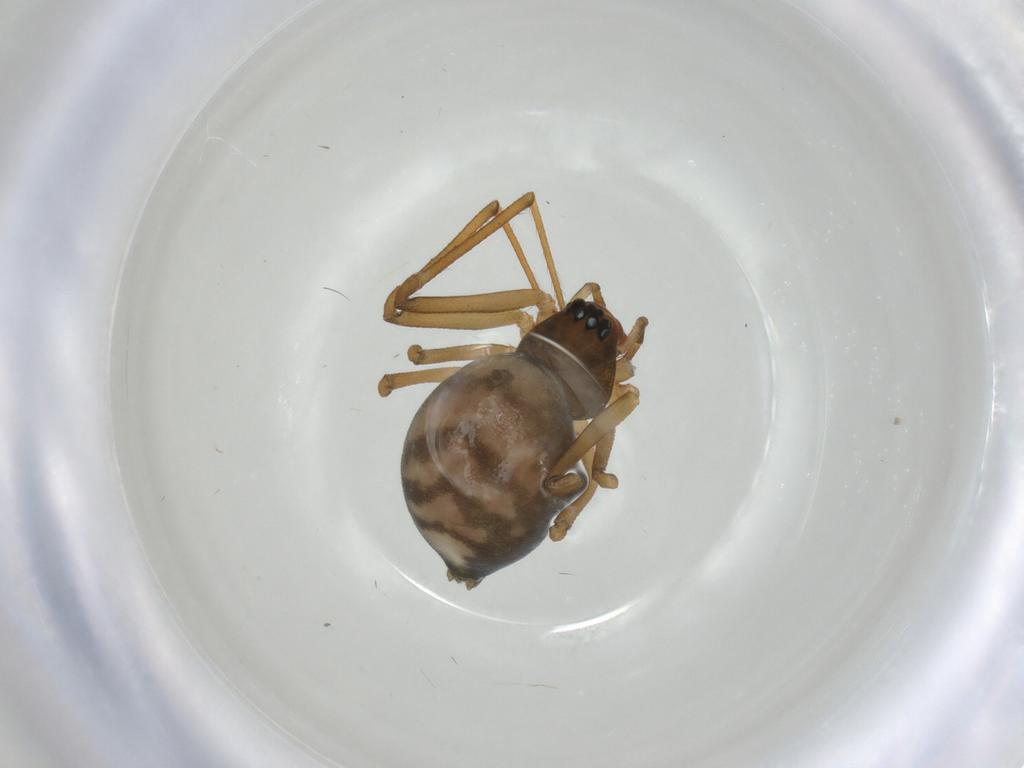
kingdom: Animalia
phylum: Arthropoda
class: Arachnida
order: Araneae
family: Linyphiidae
